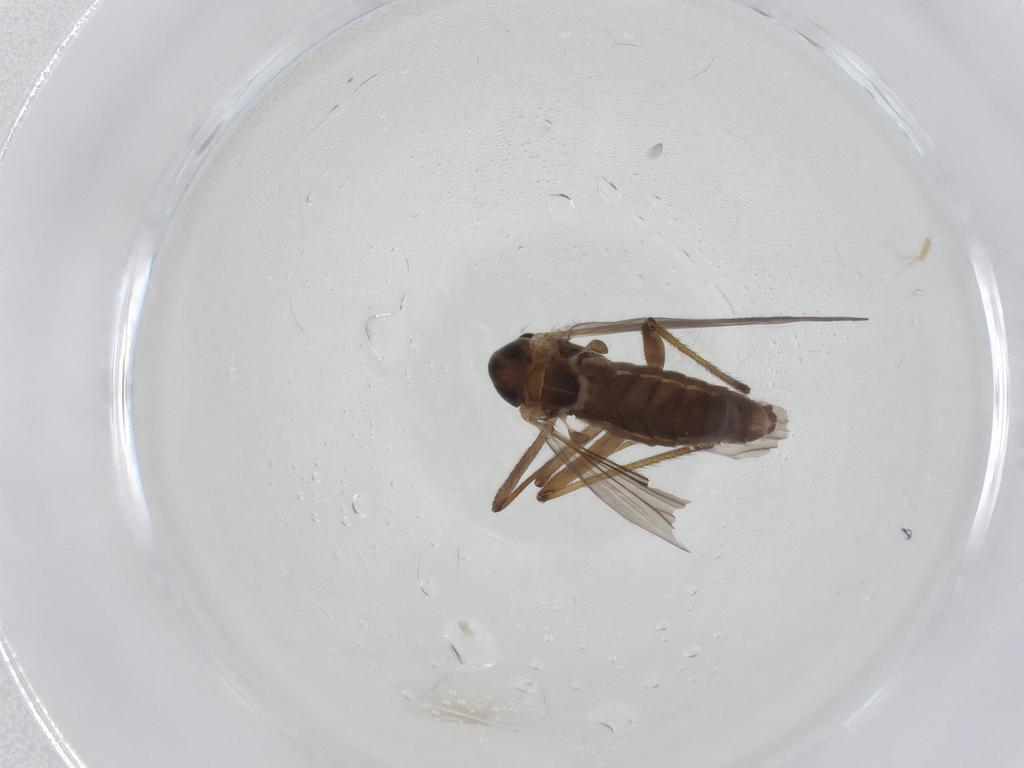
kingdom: Animalia
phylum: Arthropoda
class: Insecta
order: Diptera
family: Chironomidae
